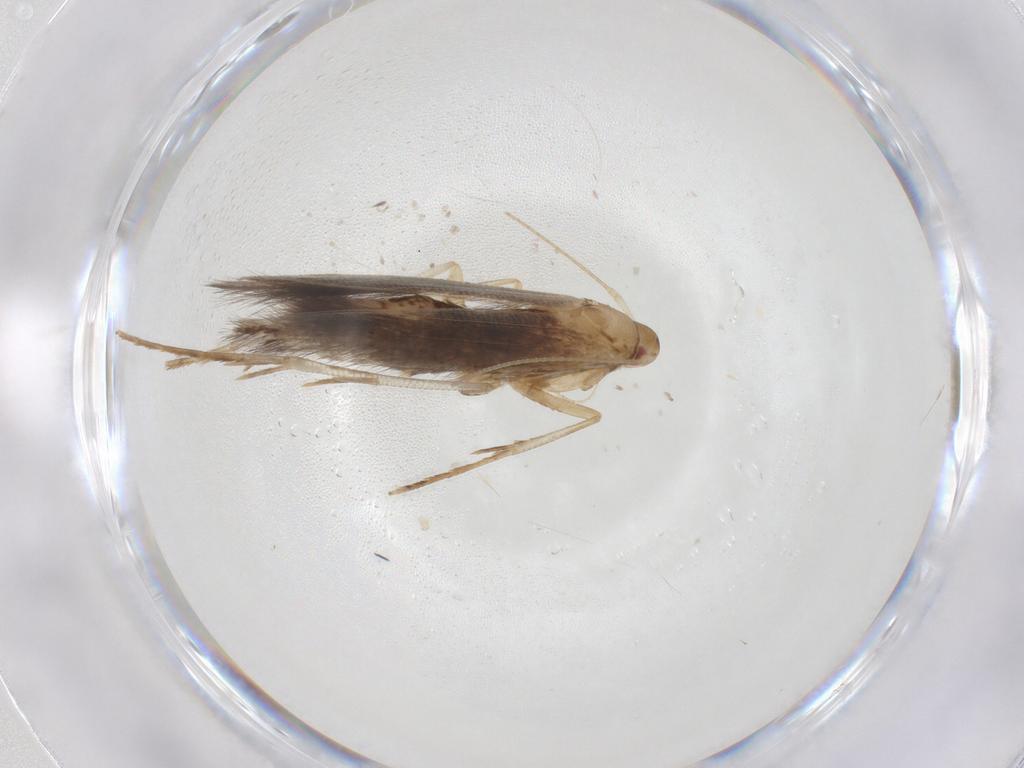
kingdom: Animalia
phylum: Arthropoda
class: Insecta
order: Lepidoptera
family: Cosmopterigidae
